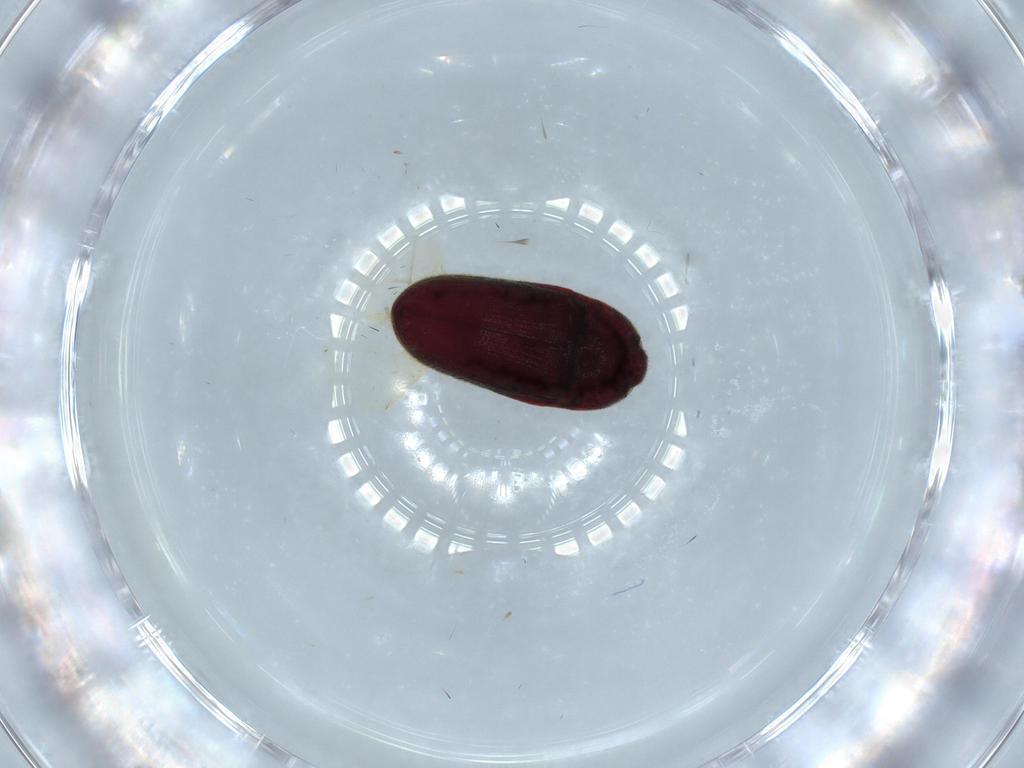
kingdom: Animalia
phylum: Arthropoda
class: Insecta
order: Coleoptera
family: Throscidae
